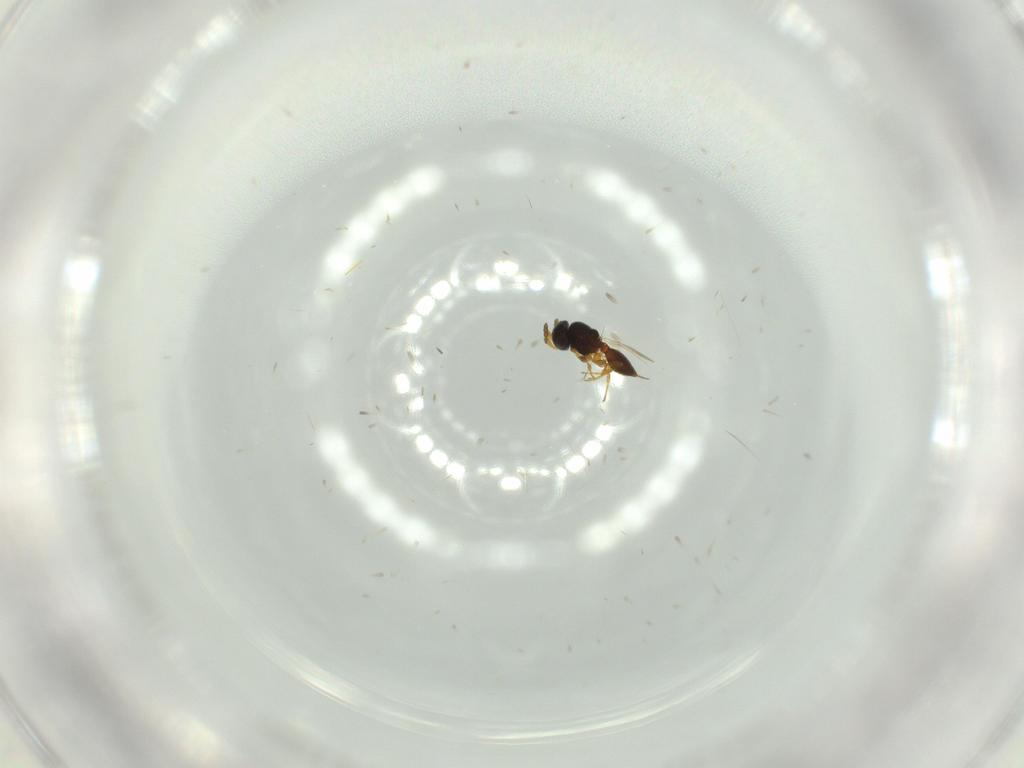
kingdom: Animalia
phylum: Arthropoda
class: Insecta
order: Hymenoptera
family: Platygastridae
